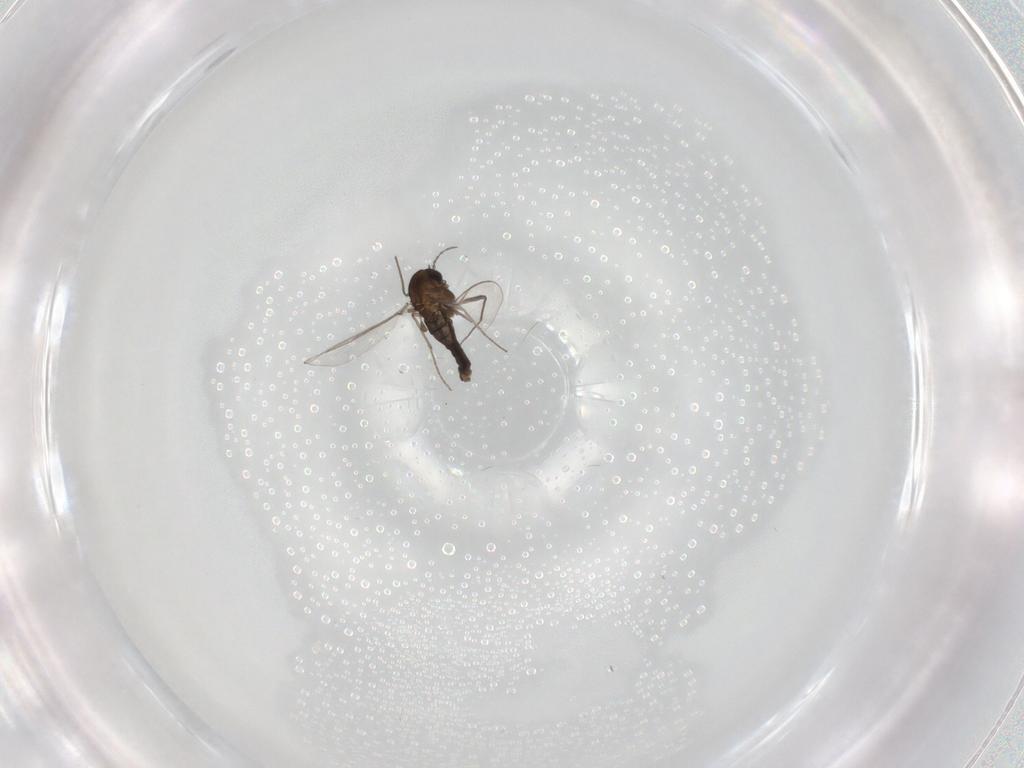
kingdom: Animalia
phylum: Arthropoda
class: Insecta
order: Diptera
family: Chironomidae
